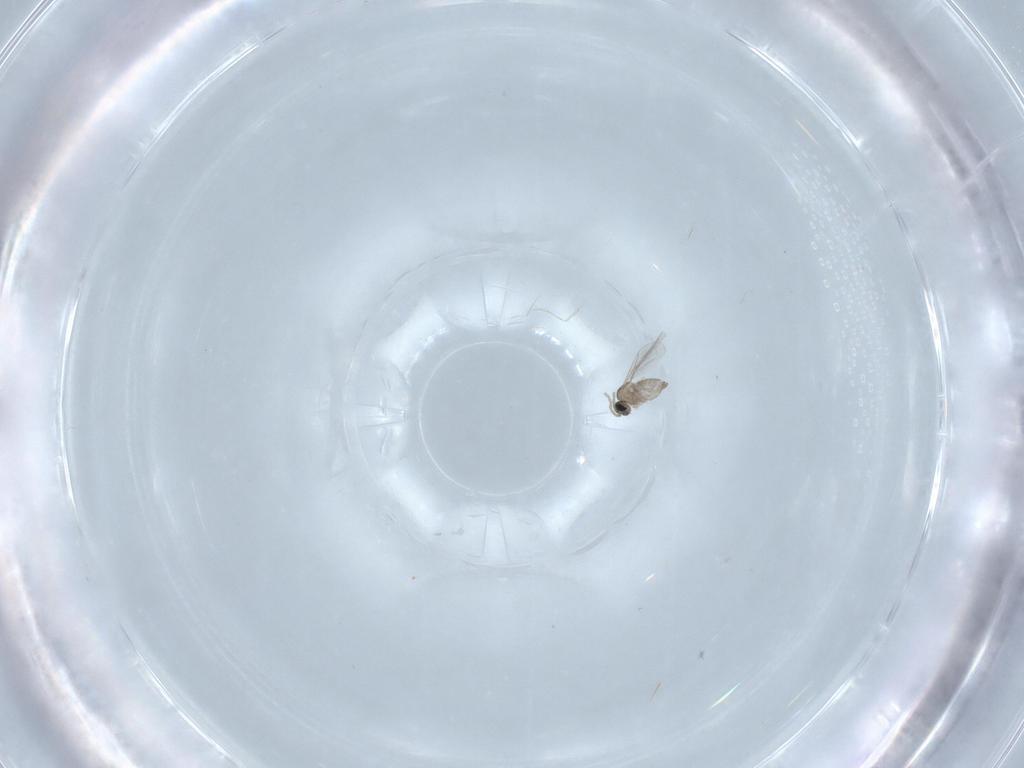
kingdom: Animalia
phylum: Arthropoda
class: Insecta
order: Diptera
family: Cecidomyiidae
